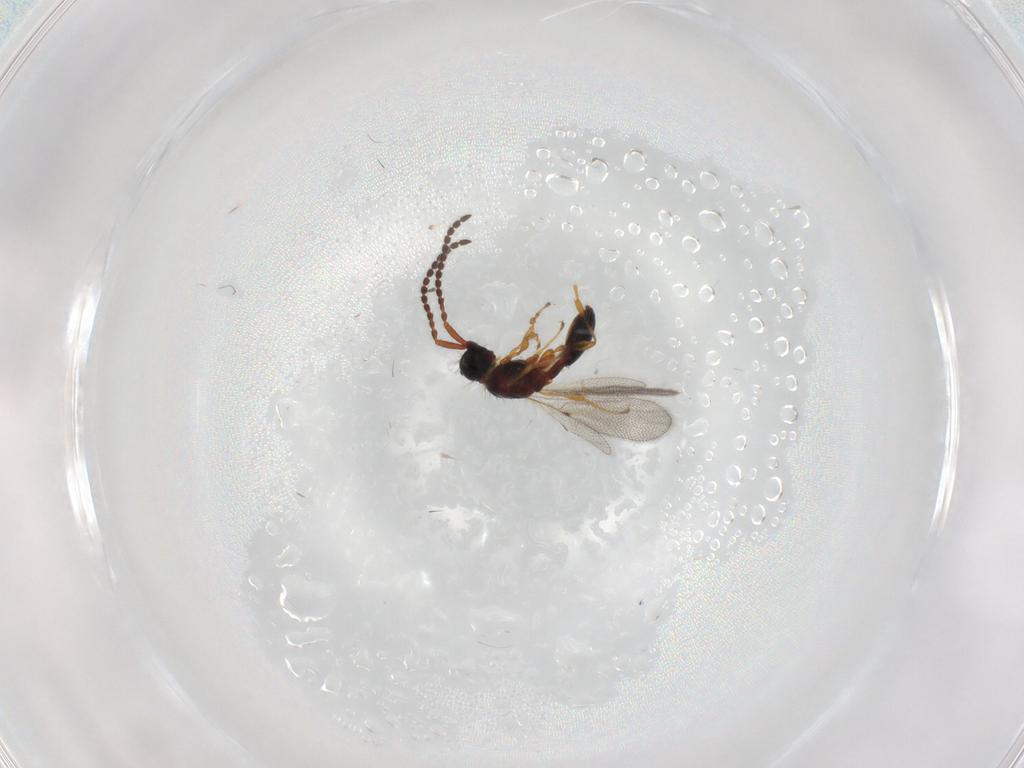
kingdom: Animalia
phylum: Arthropoda
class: Insecta
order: Hymenoptera
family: Diapriidae
